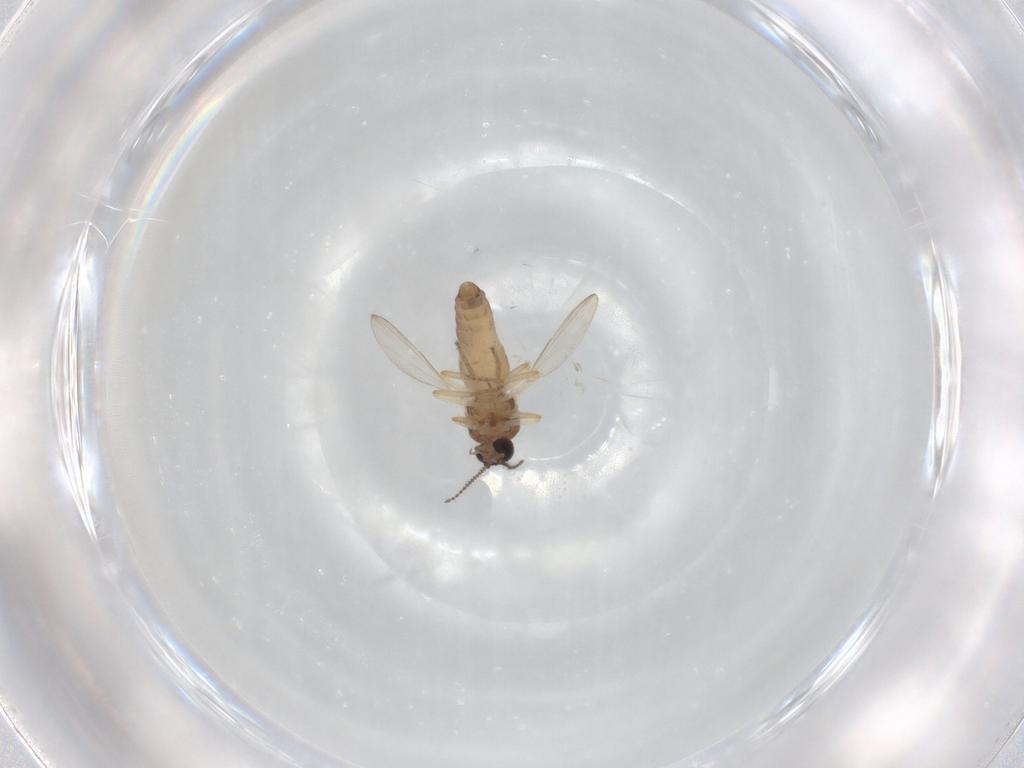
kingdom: Animalia
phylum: Arthropoda
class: Insecta
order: Diptera
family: Ceratopogonidae
